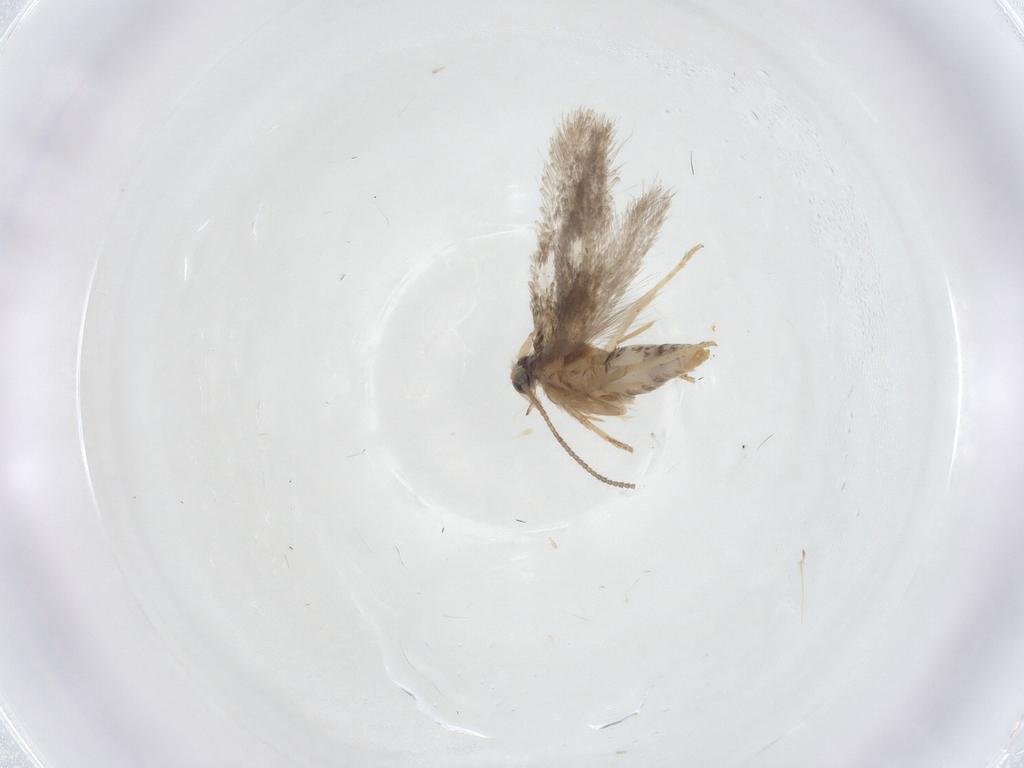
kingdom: Animalia
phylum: Arthropoda
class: Insecta
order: Lepidoptera
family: Nepticulidae
